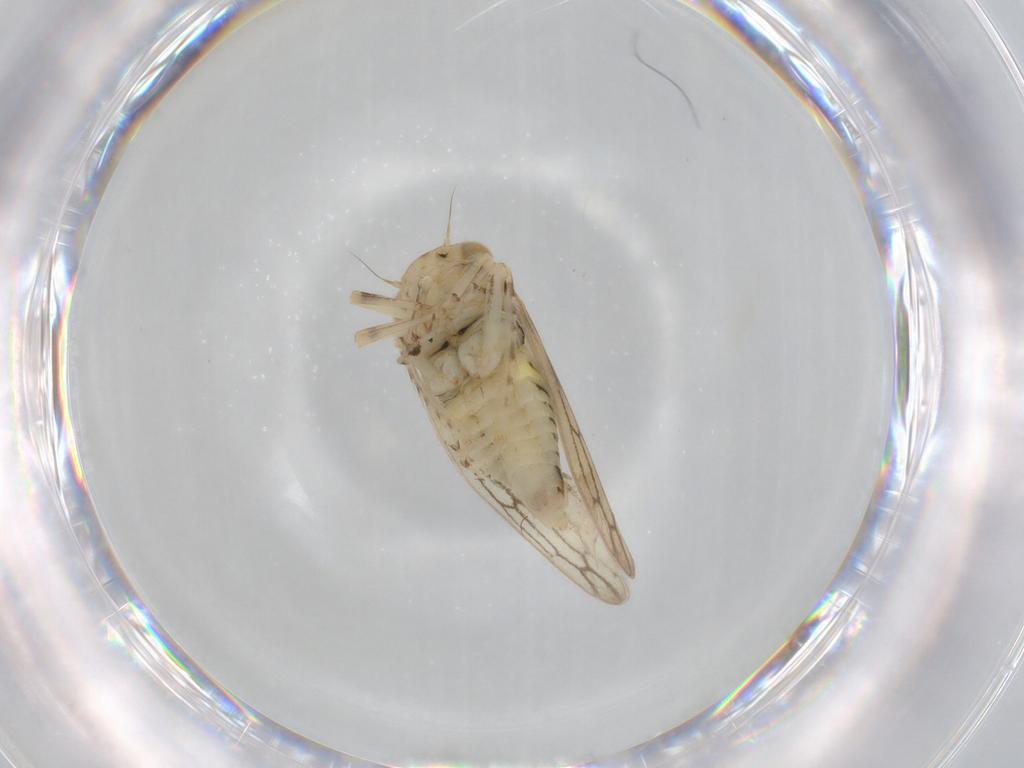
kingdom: Animalia
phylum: Arthropoda
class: Insecta
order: Hemiptera
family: Cicadellidae
